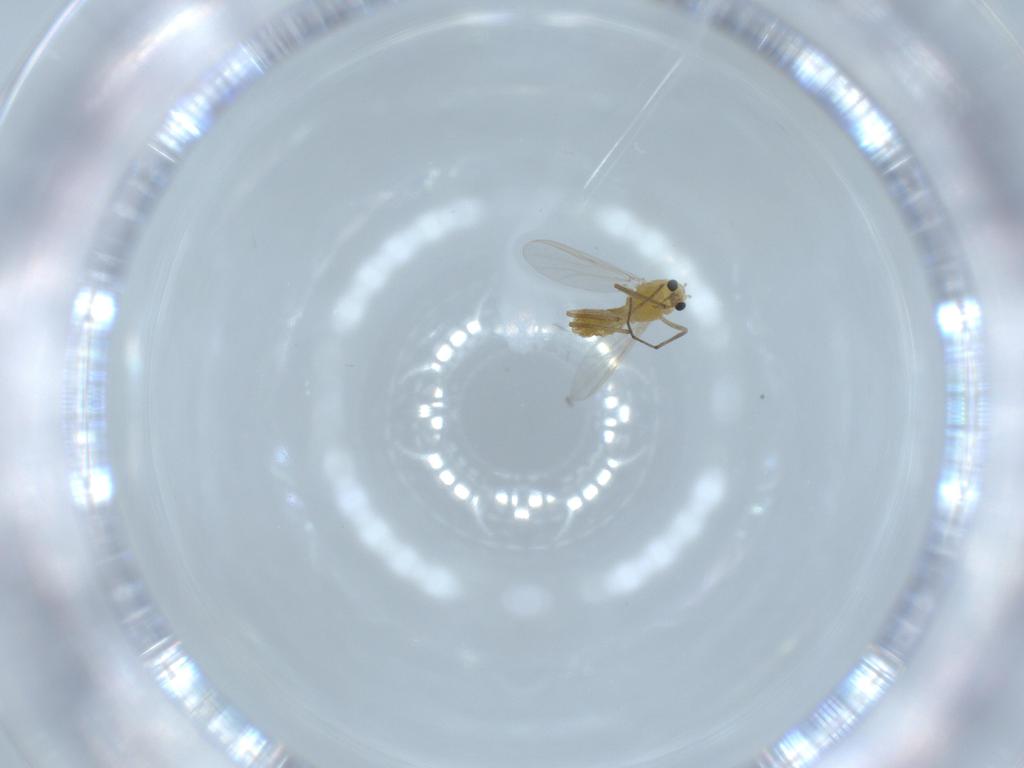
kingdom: Animalia
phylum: Arthropoda
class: Insecta
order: Diptera
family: Chironomidae
